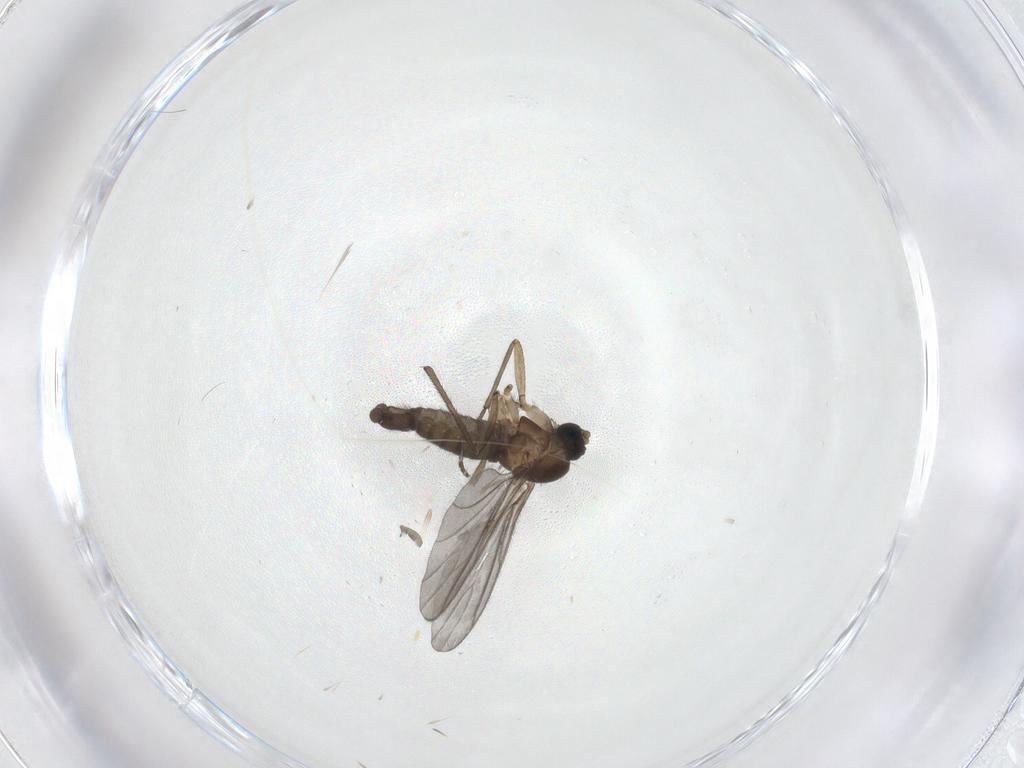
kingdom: Animalia
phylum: Arthropoda
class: Insecta
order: Diptera
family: Sciaridae
